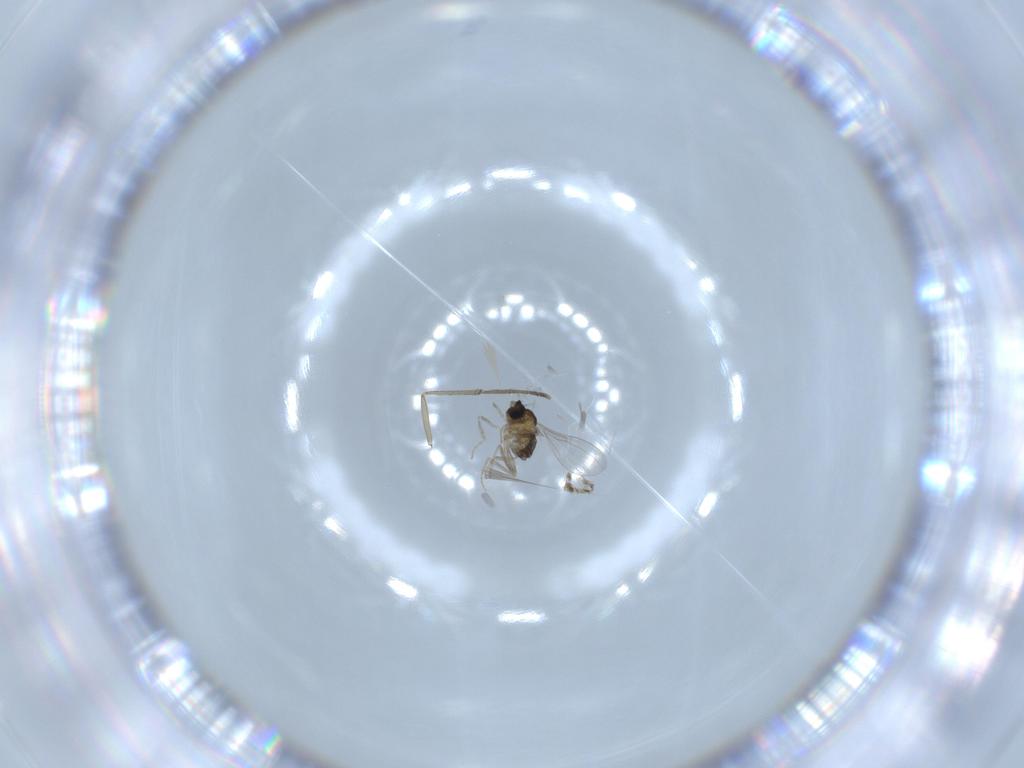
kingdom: Animalia
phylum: Arthropoda
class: Insecta
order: Diptera
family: Cecidomyiidae
